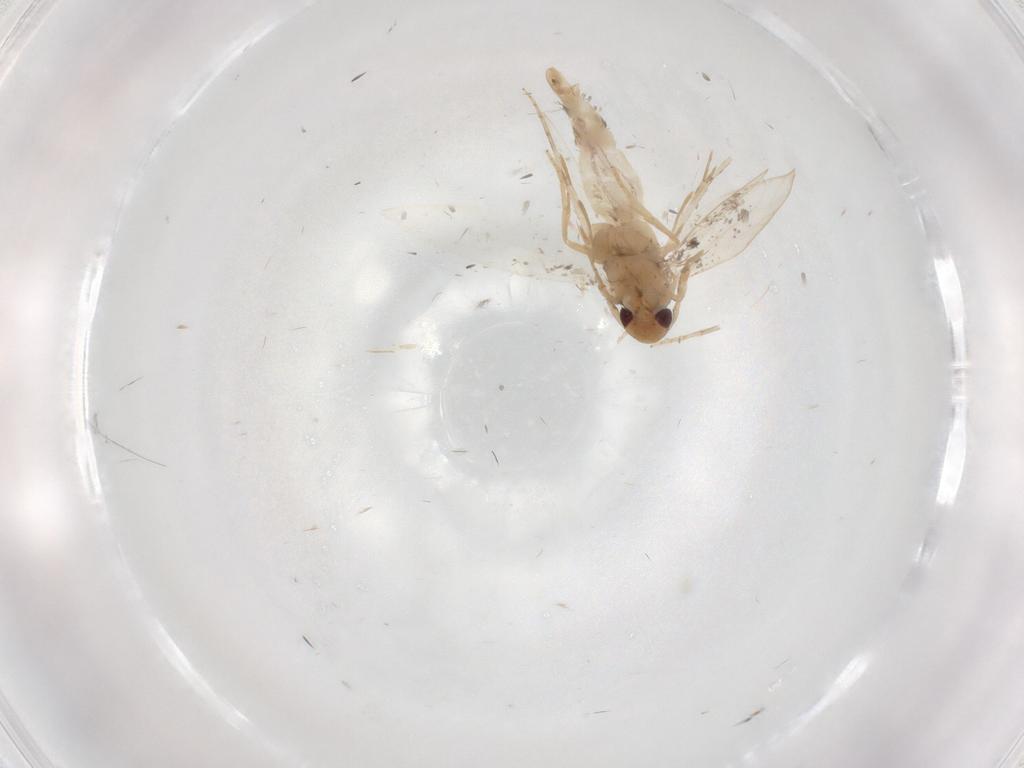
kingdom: Animalia
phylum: Arthropoda
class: Insecta
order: Lepidoptera
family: Gelechiidae
